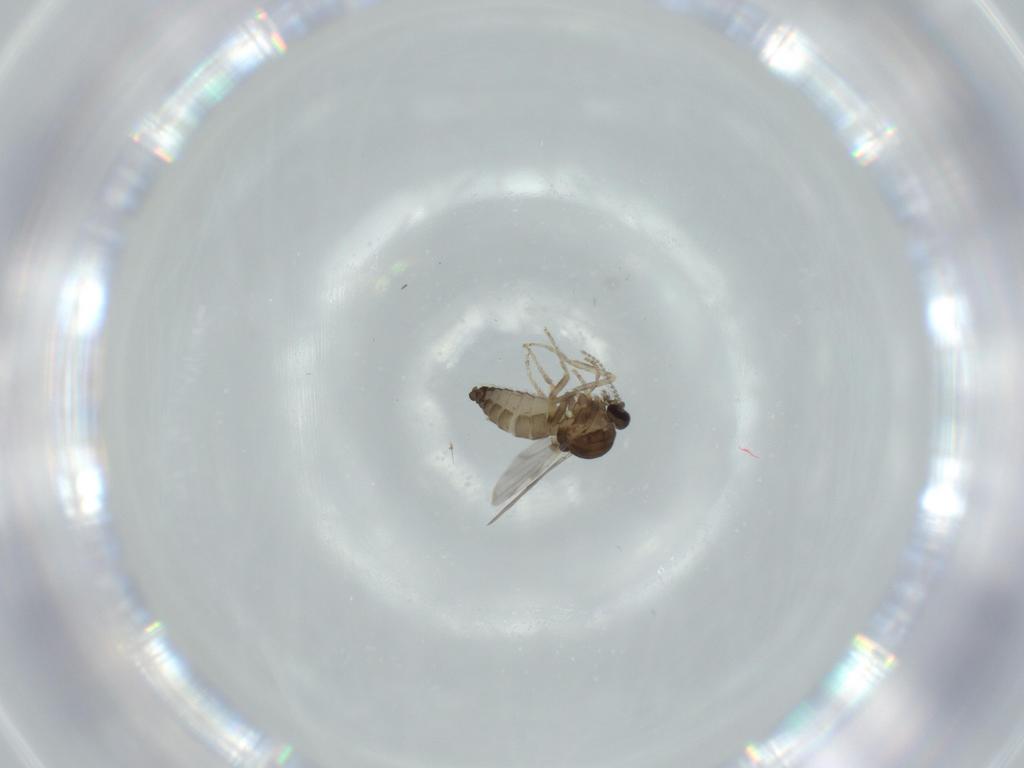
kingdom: Animalia
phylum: Arthropoda
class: Insecta
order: Diptera
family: Ceratopogonidae
